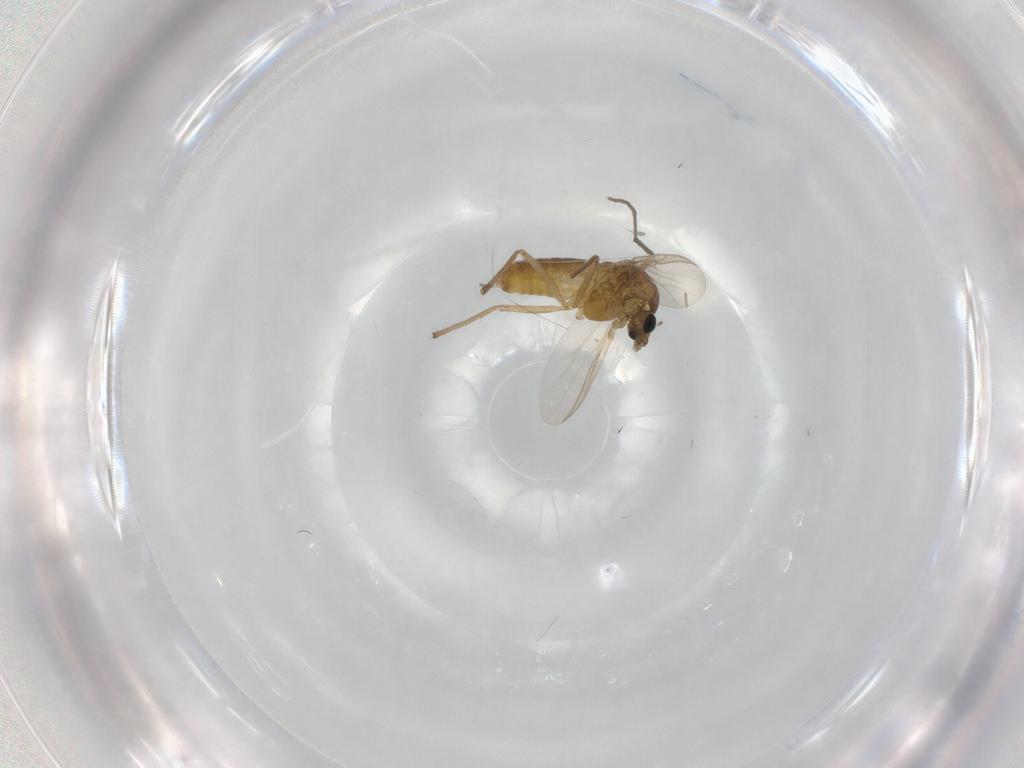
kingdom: Animalia
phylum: Arthropoda
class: Insecta
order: Diptera
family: Chironomidae
